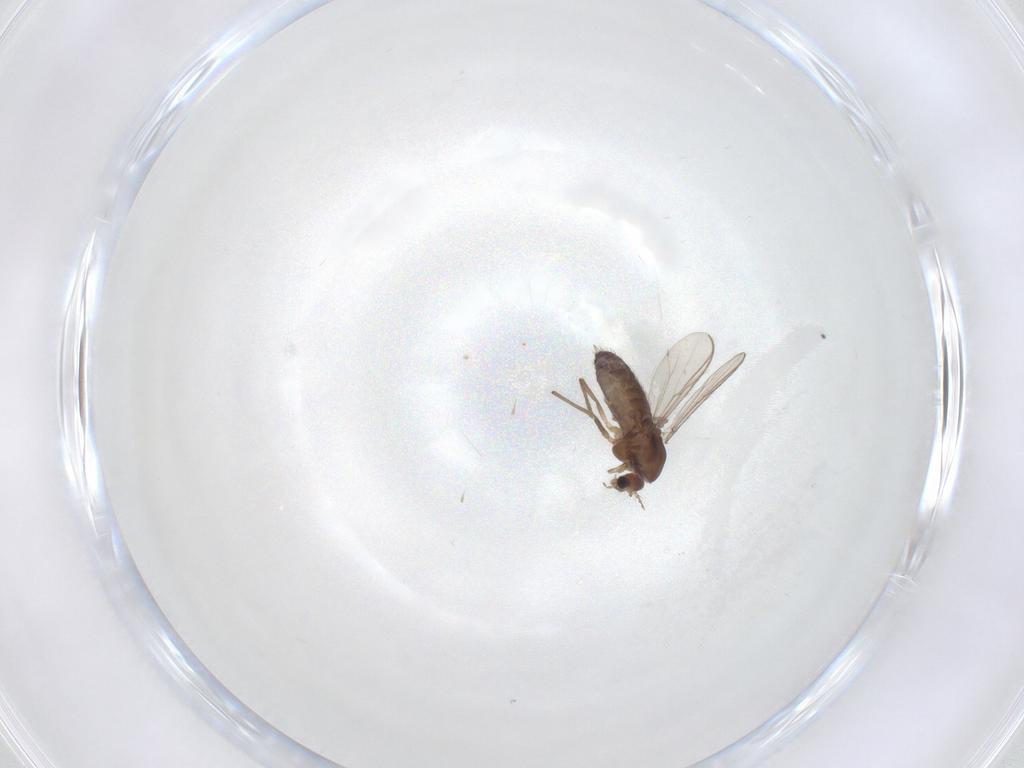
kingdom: Animalia
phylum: Arthropoda
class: Insecta
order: Diptera
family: Chironomidae
